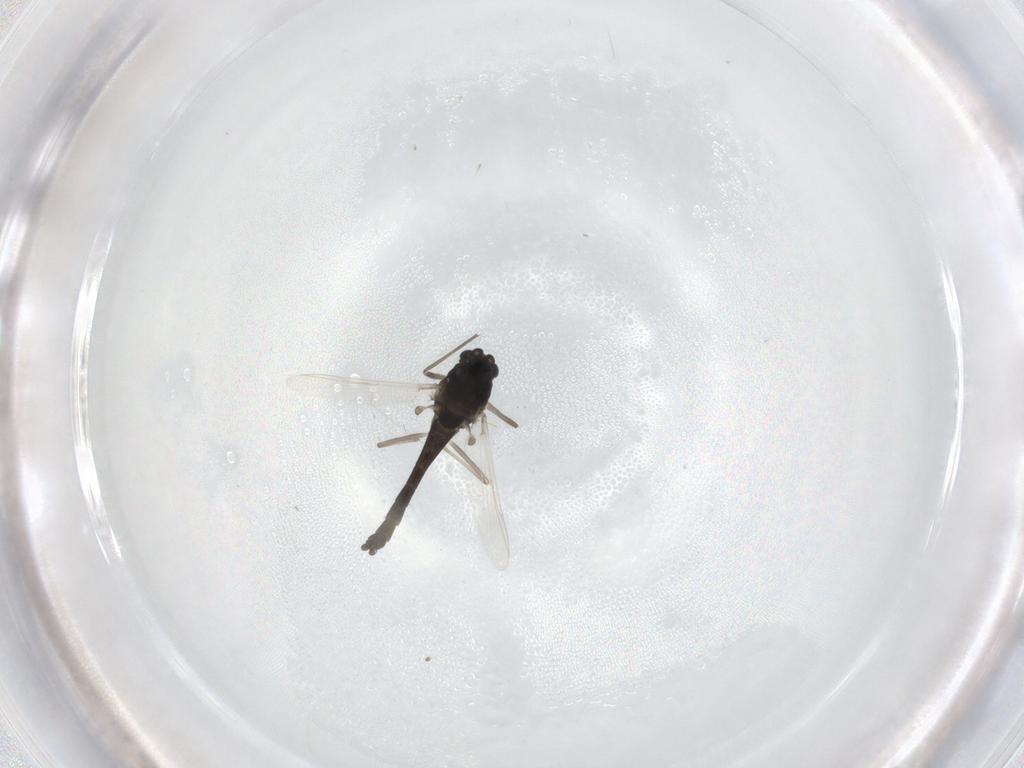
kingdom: Animalia
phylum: Arthropoda
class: Insecta
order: Diptera
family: Chironomidae
